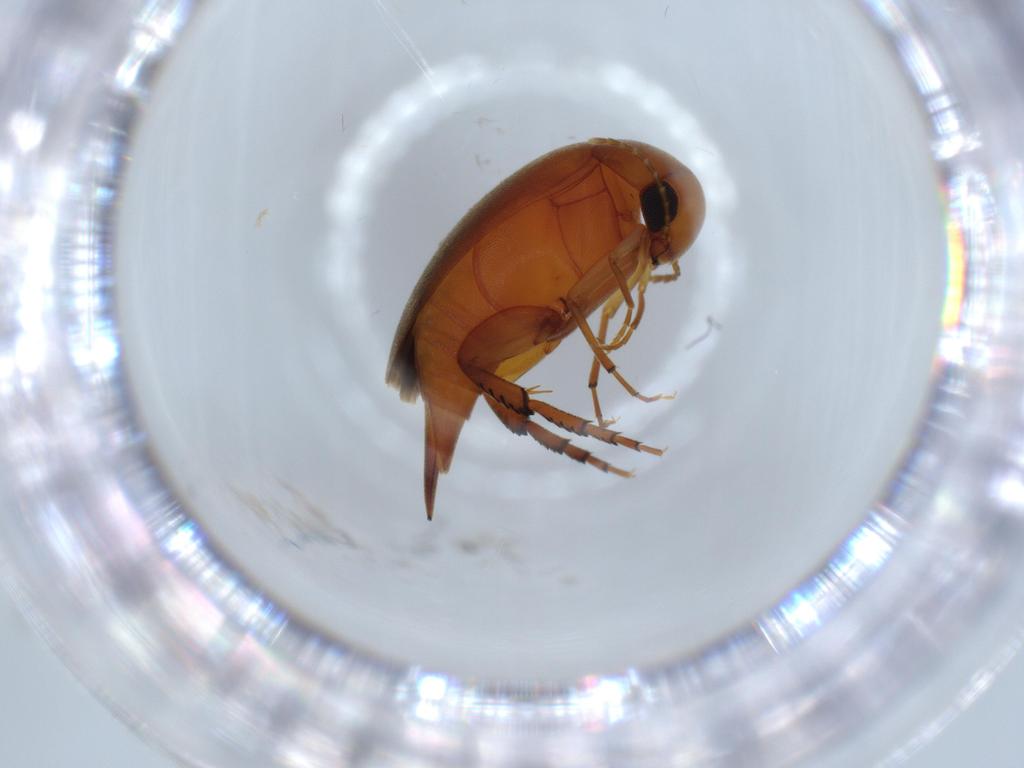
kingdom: Animalia
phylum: Arthropoda
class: Insecta
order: Coleoptera
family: Mordellidae
